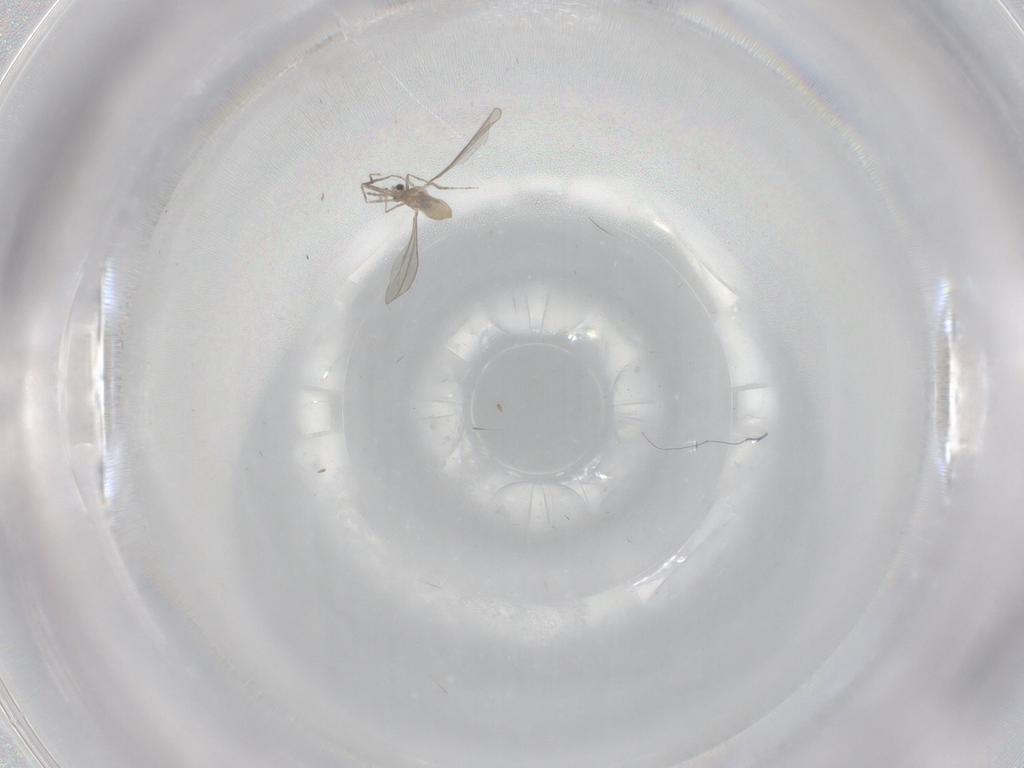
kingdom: Animalia
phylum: Arthropoda
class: Insecta
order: Diptera
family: Cecidomyiidae
